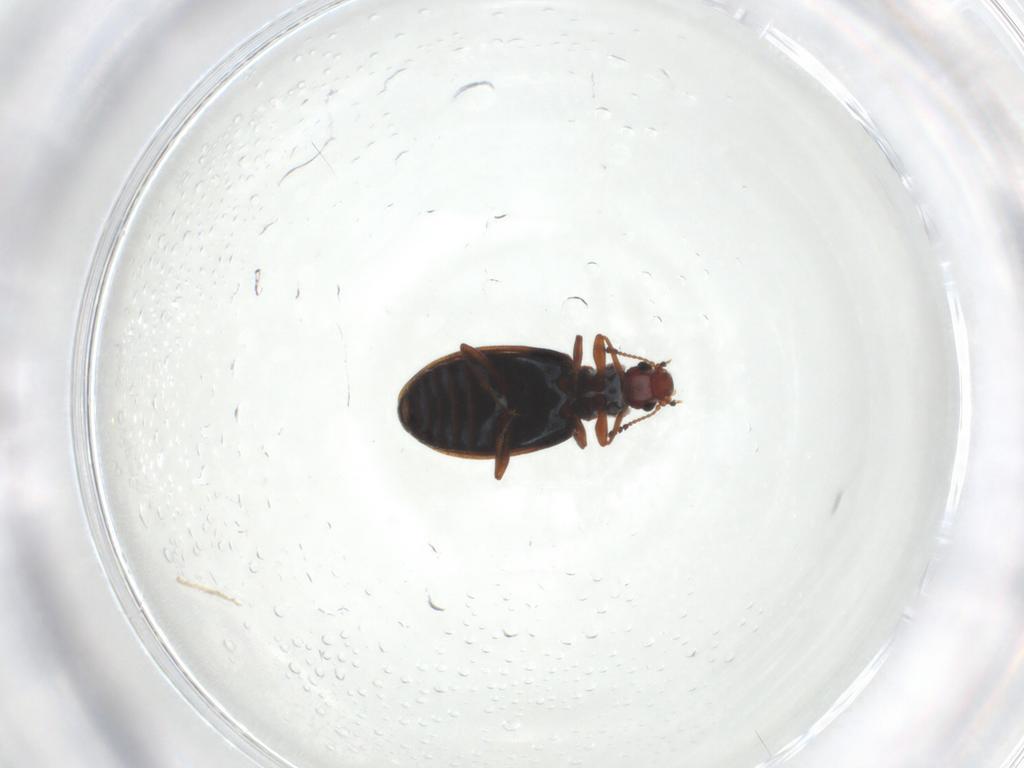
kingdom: Animalia
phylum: Arthropoda
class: Insecta
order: Coleoptera
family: Latridiidae
